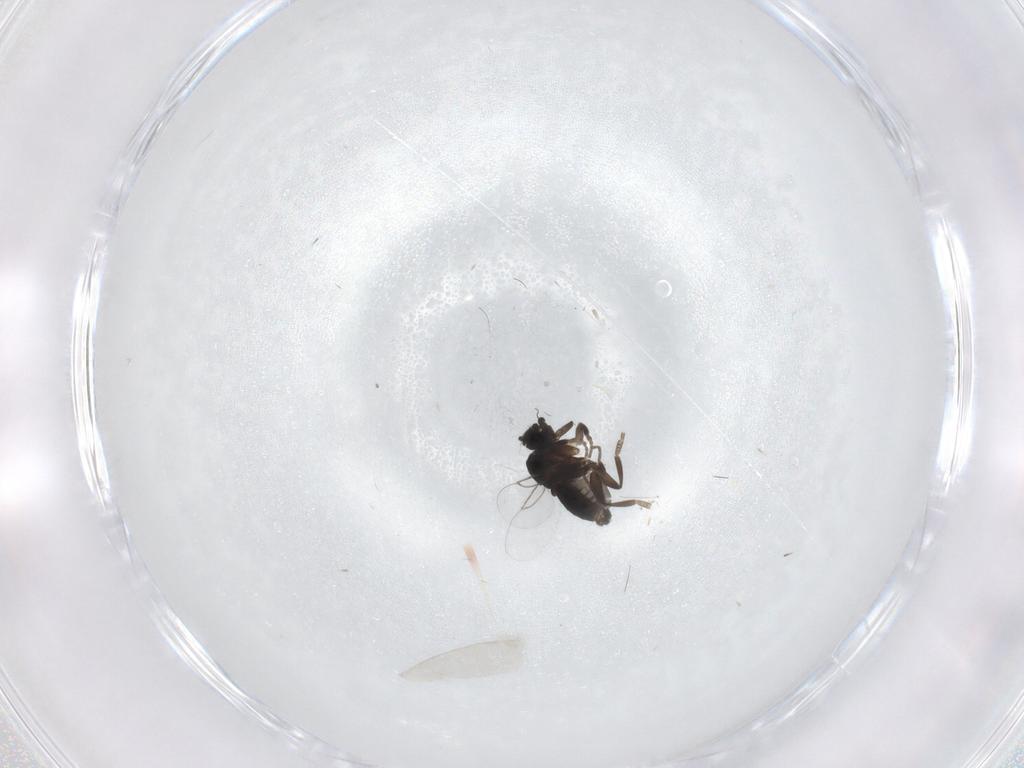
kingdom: Animalia
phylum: Arthropoda
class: Insecta
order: Diptera
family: Phoridae
